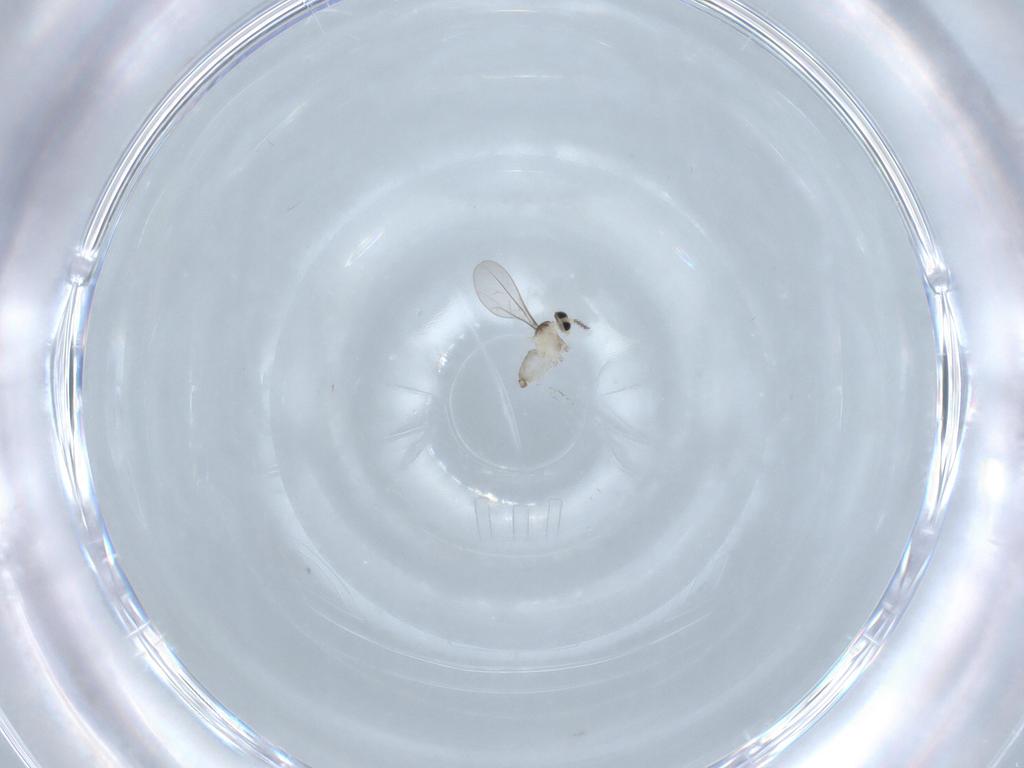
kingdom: Animalia
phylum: Arthropoda
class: Insecta
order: Diptera
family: Cecidomyiidae
